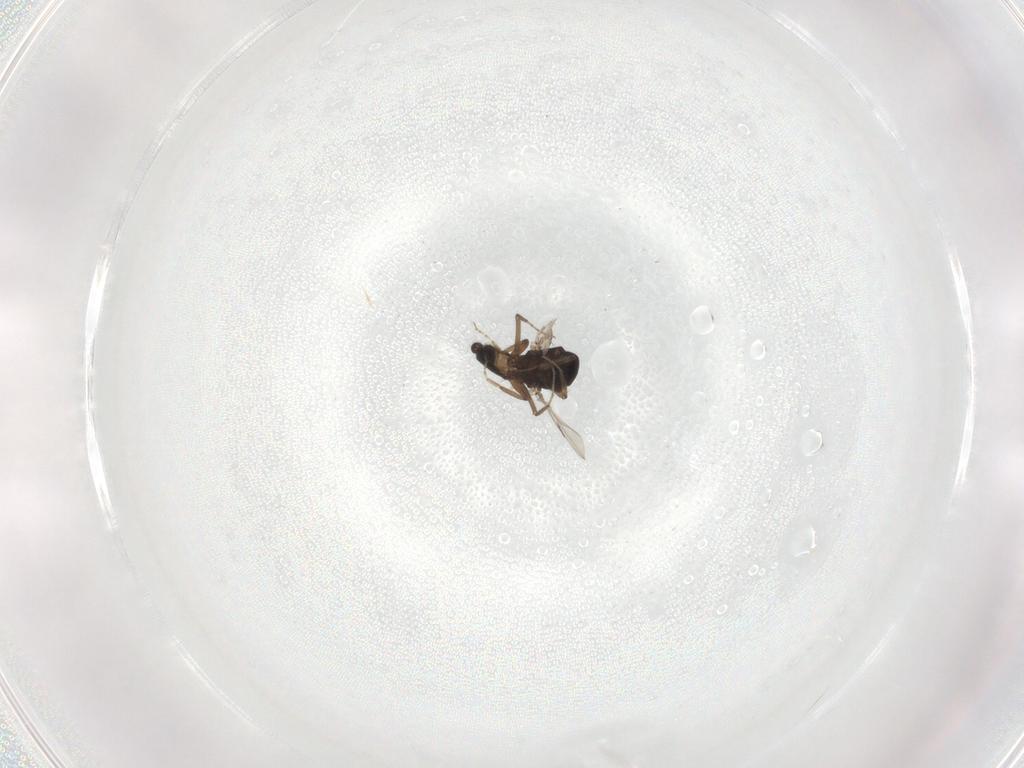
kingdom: Animalia
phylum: Arthropoda
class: Insecta
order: Diptera
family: Ceratopogonidae
